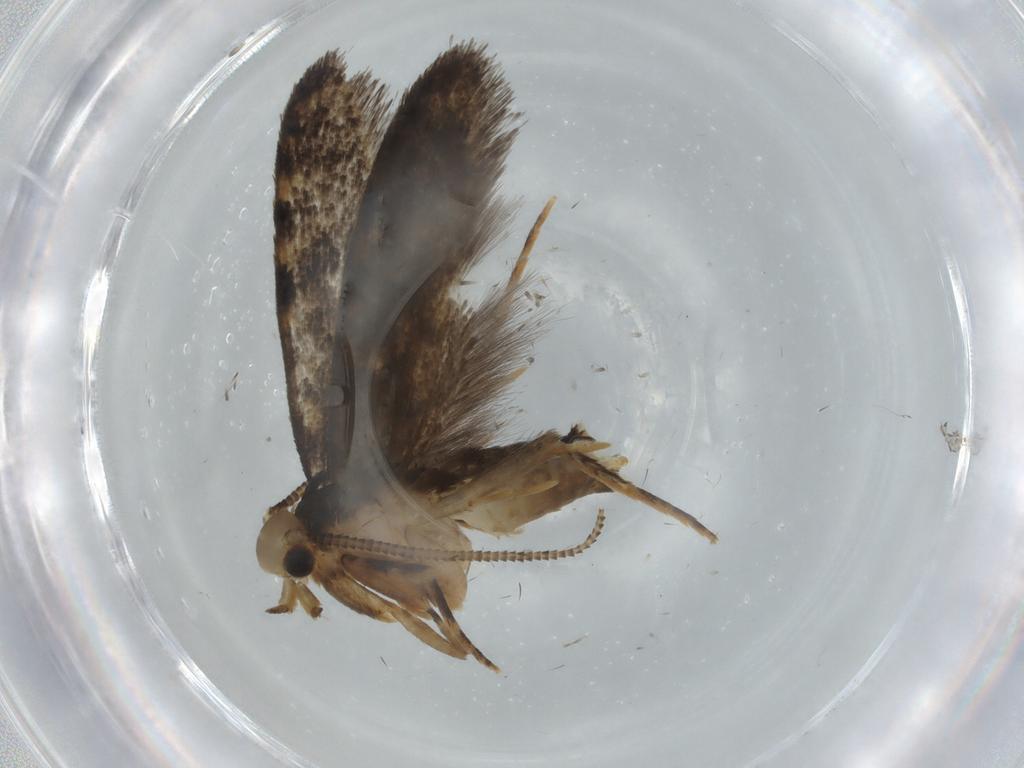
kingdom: Animalia
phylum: Arthropoda
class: Insecta
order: Lepidoptera
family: Tineidae
